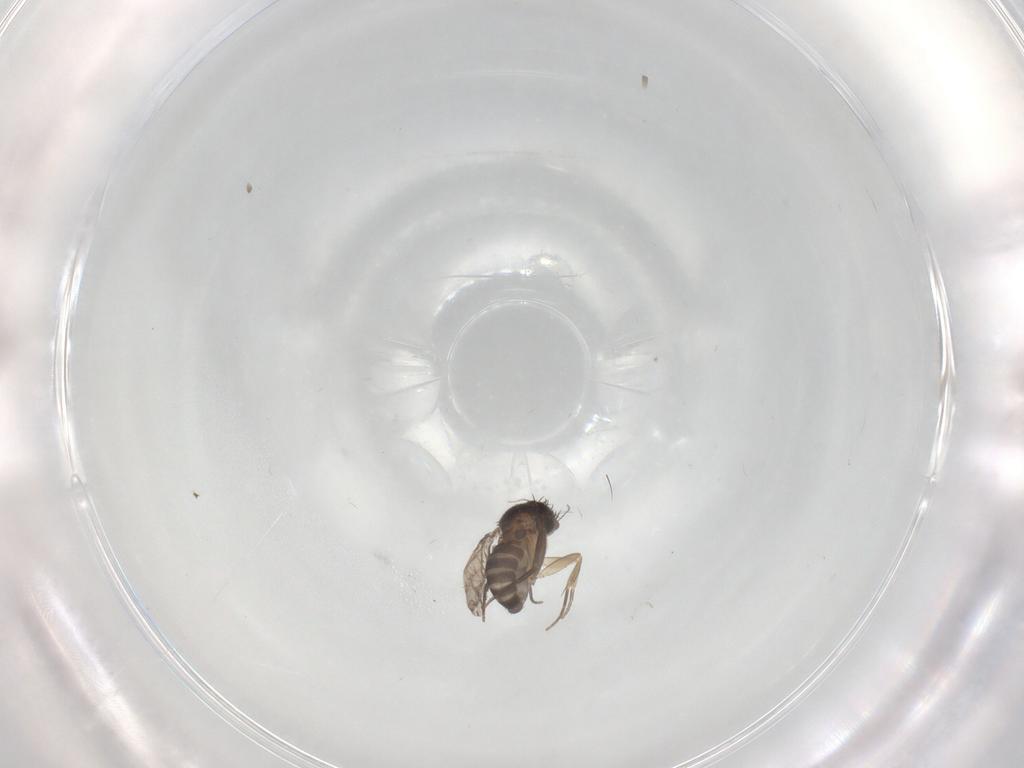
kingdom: Animalia
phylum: Arthropoda
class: Insecta
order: Diptera
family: Phoridae
